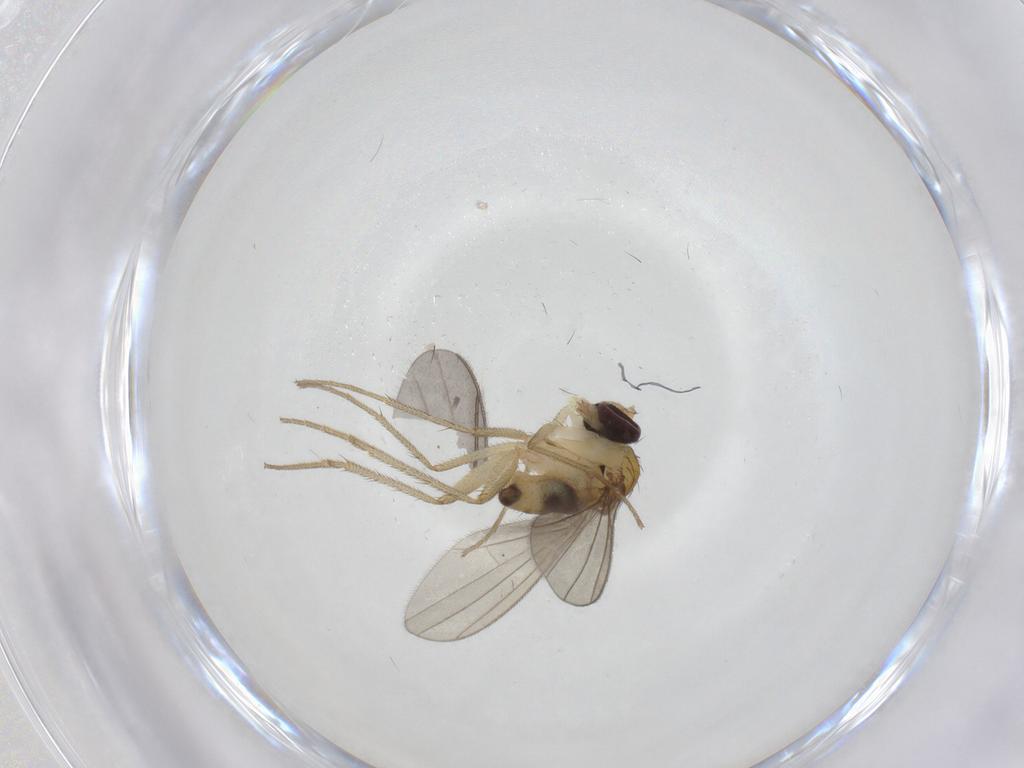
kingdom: Animalia
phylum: Arthropoda
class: Insecta
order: Diptera
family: Dolichopodidae
